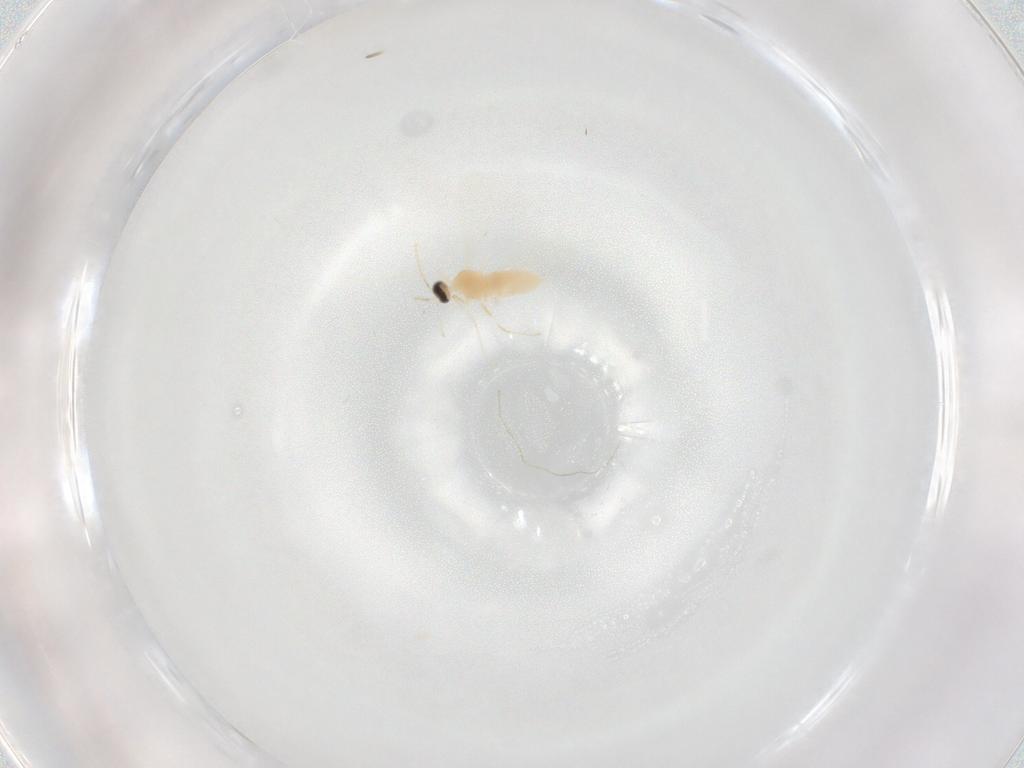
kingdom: Animalia
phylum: Arthropoda
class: Insecta
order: Diptera
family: Cecidomyiidae
